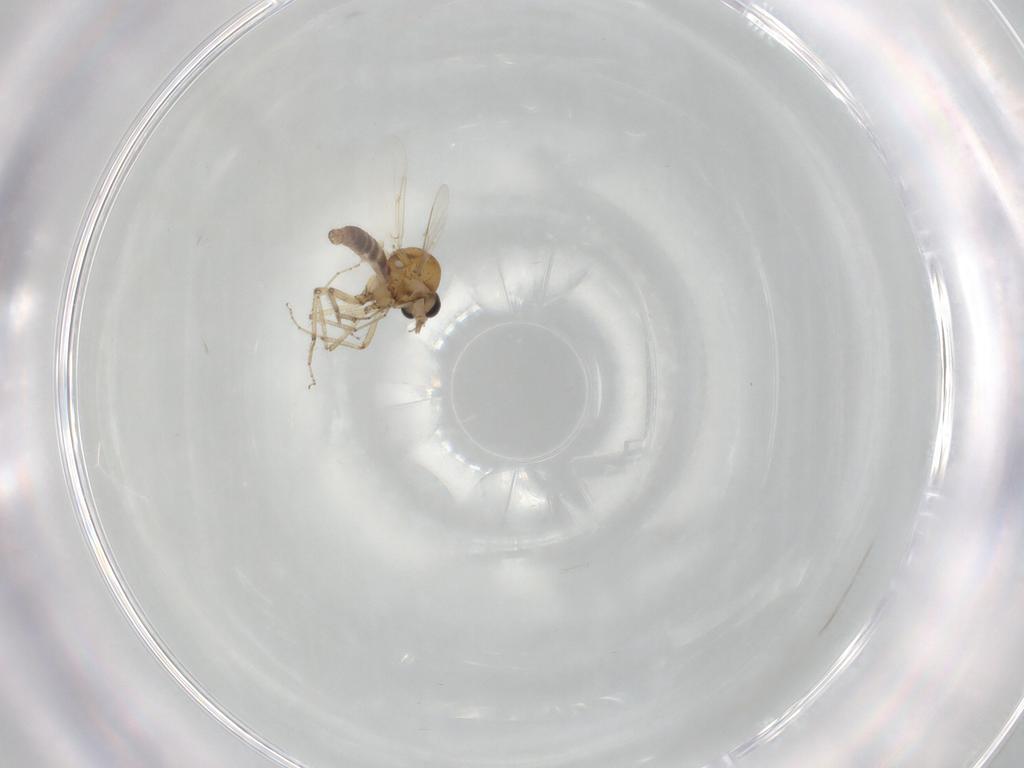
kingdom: Animalia
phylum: Arthropoda
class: Insecta
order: Diptera
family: Ceratopogonidae
